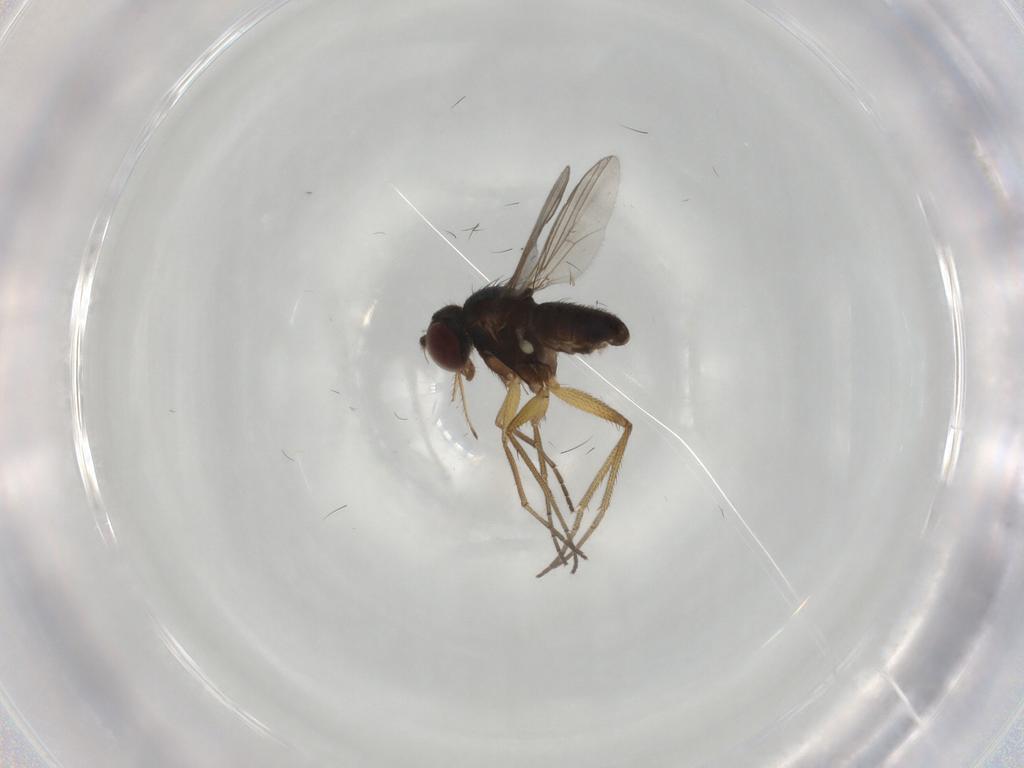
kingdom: Animalia
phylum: Arthropoda
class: Insecta
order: Diptera
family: Dolichopodidae
